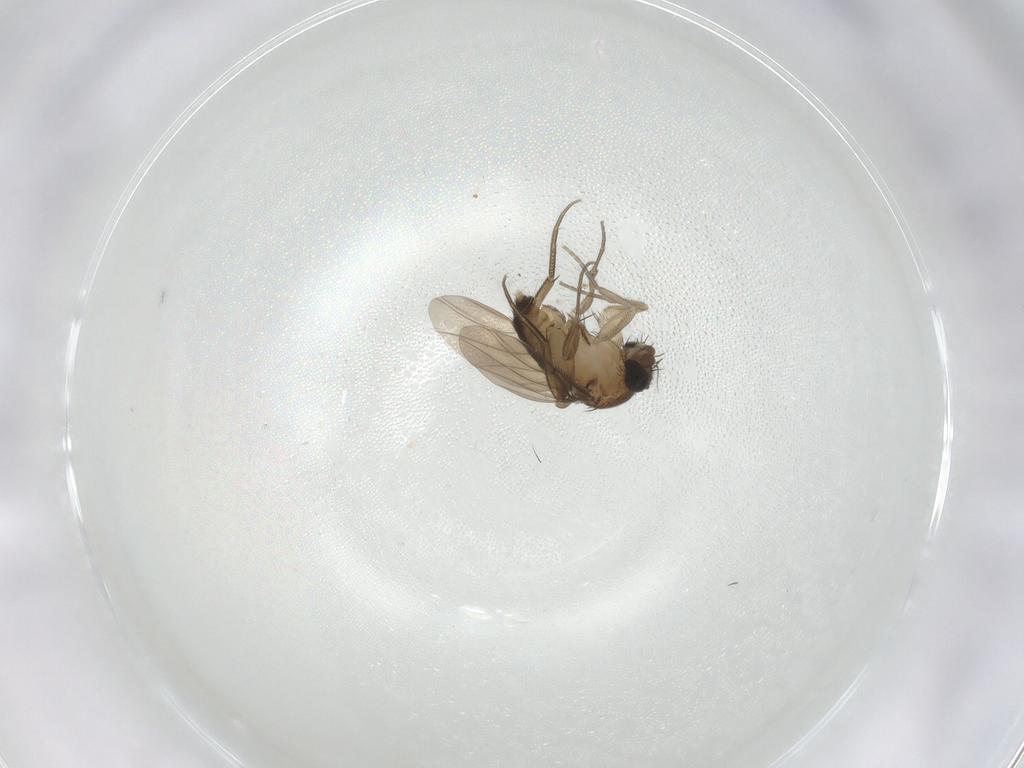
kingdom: Animalia
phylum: Arthropoda
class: Insecta
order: Diptera
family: Phoridae
